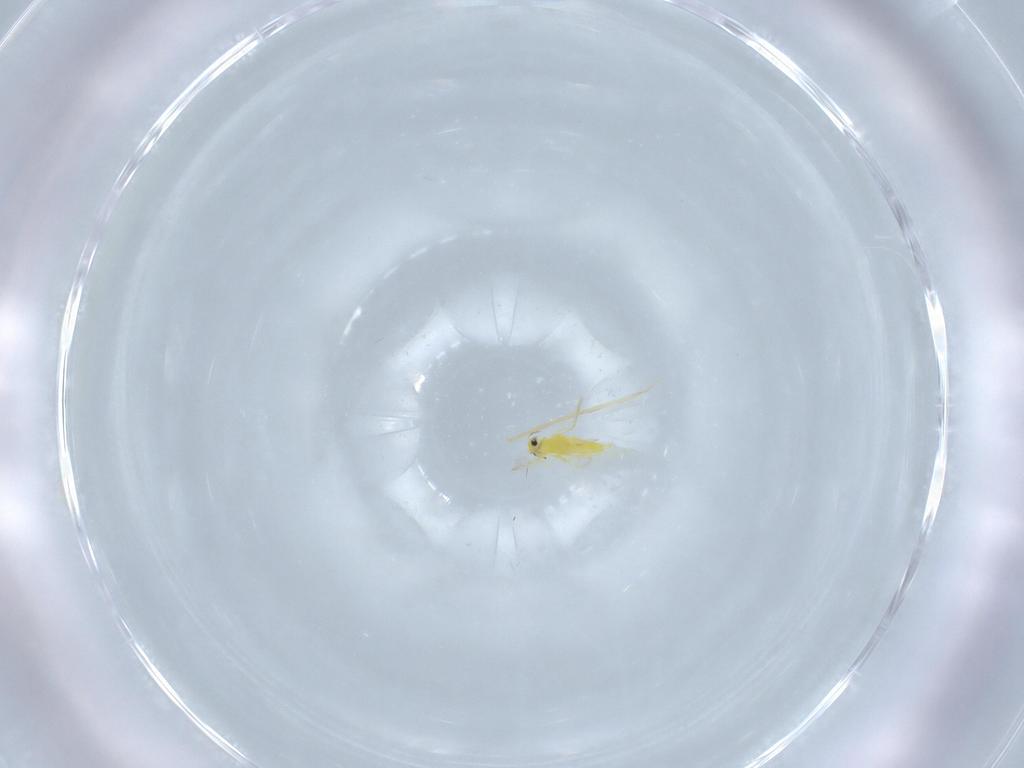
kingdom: Animalia
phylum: Arthropoda
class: Insecta
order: Hemiptera
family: Aleyrodidae
